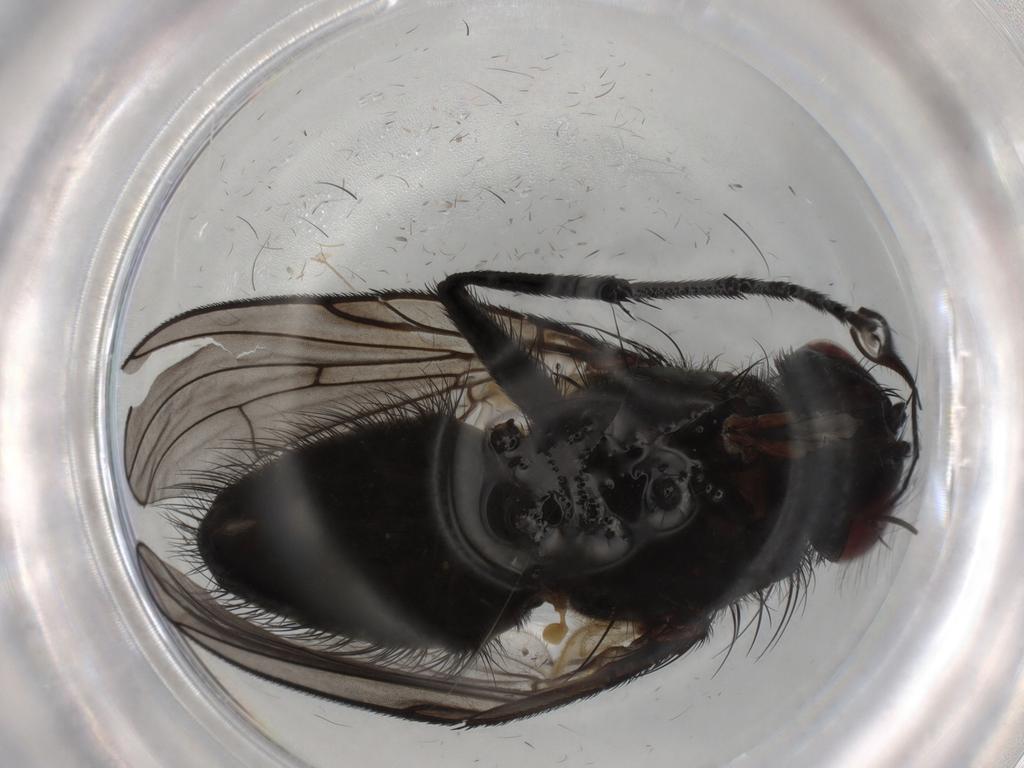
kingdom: Animalia
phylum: Arthropoda
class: Insecta
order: Diptera
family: Muscidae
